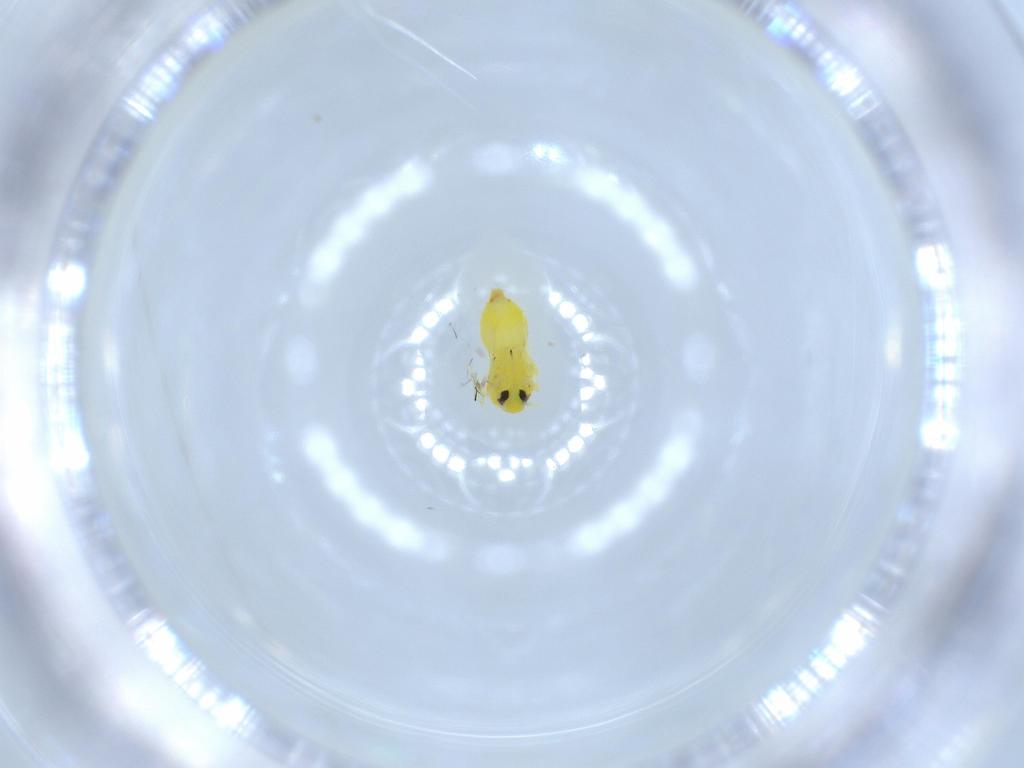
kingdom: Animalia
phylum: Arthropoda
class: Insecta
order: Hemiptera
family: Aleyrodidae
